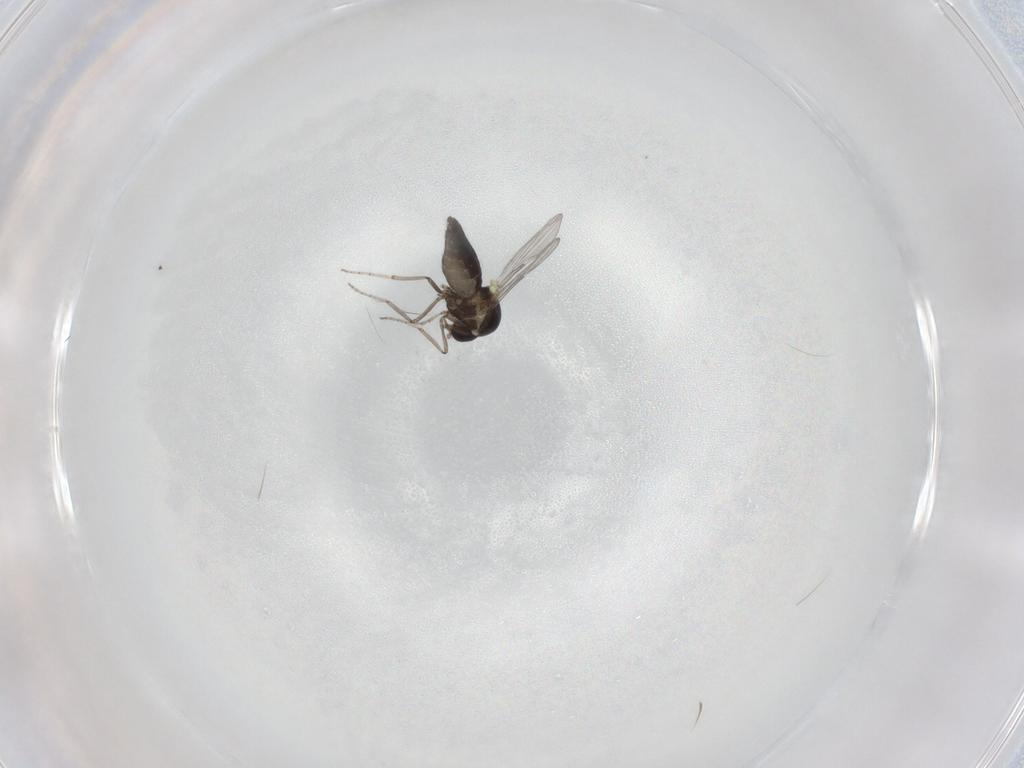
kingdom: Animalia
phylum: Arthropoda
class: Insecta
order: Diptera
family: Ceratopogonidae
